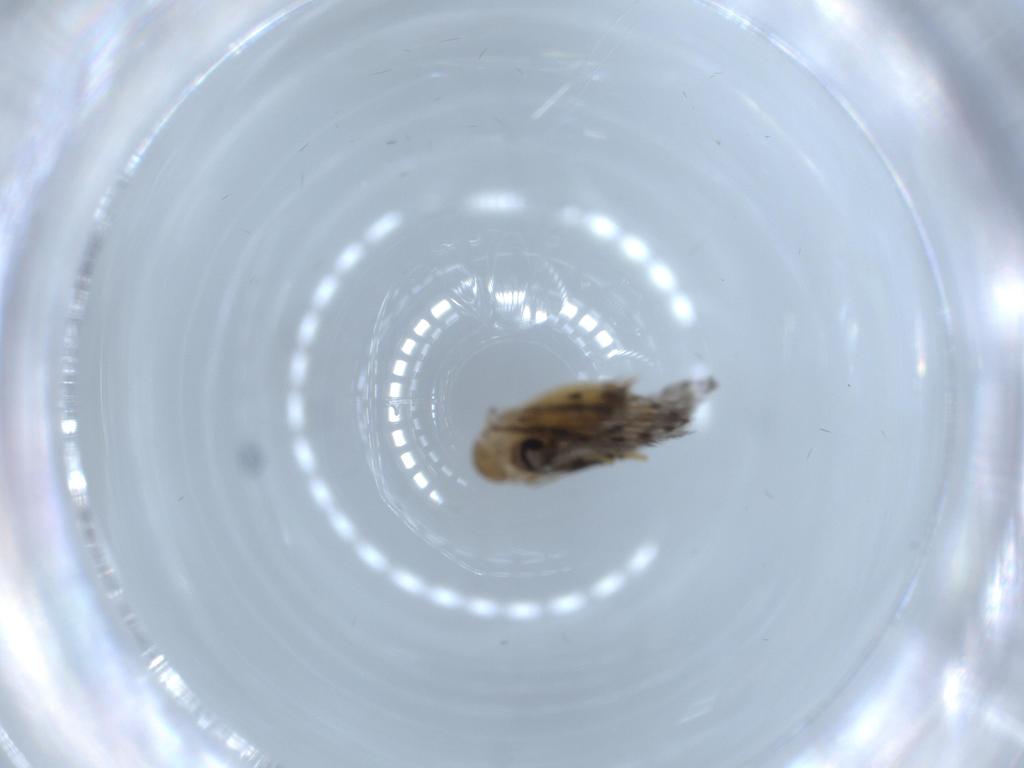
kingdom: Animalia
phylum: Arthropoda
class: Insecta
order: Diptera
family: Psychodidae
